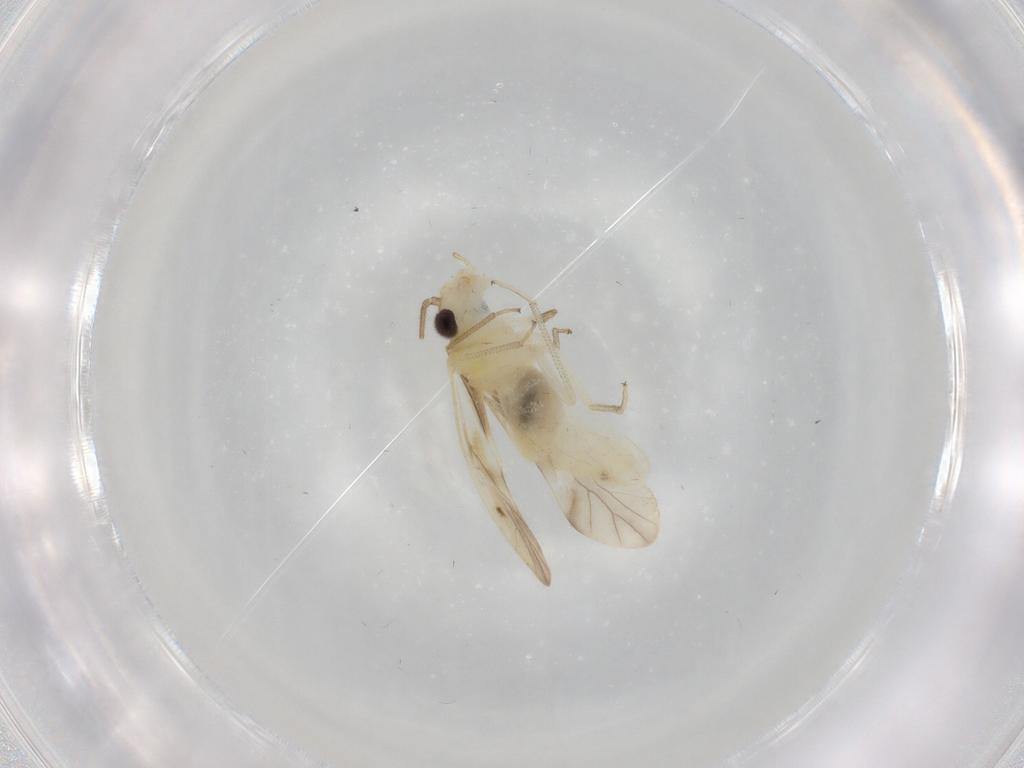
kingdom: Animalia
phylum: Arthropoda
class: Insecta
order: Psocodea
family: Caeciliusidae
